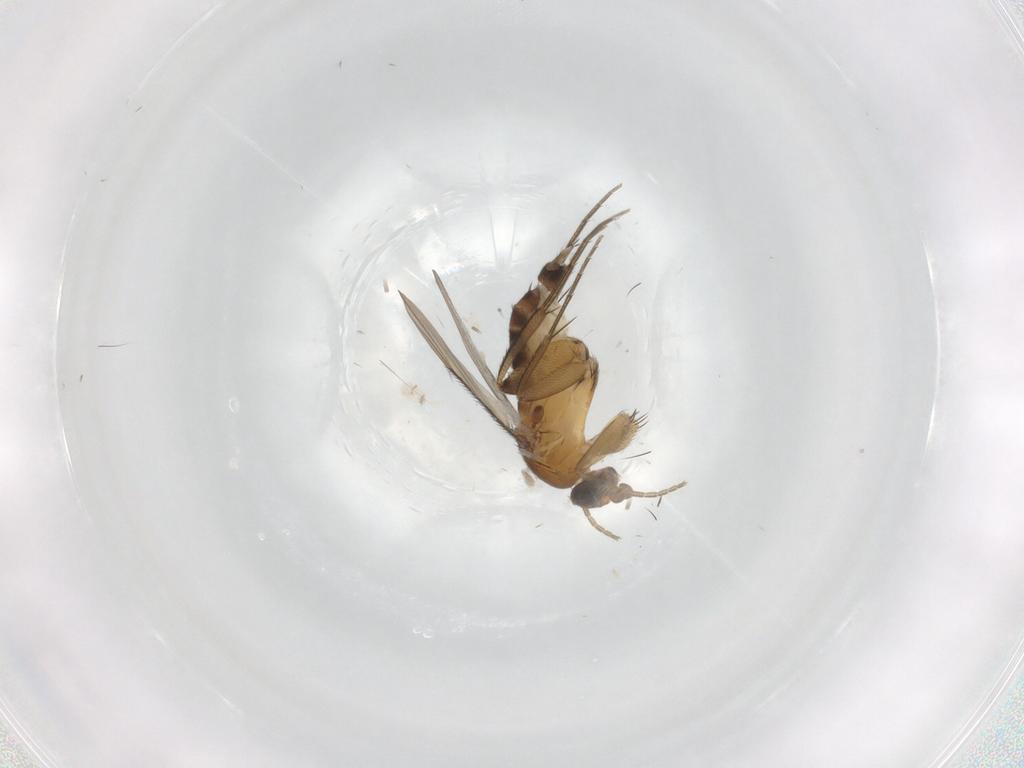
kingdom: Animalia
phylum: Arthropoda
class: Insecta
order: Diptera
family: Phoridae
